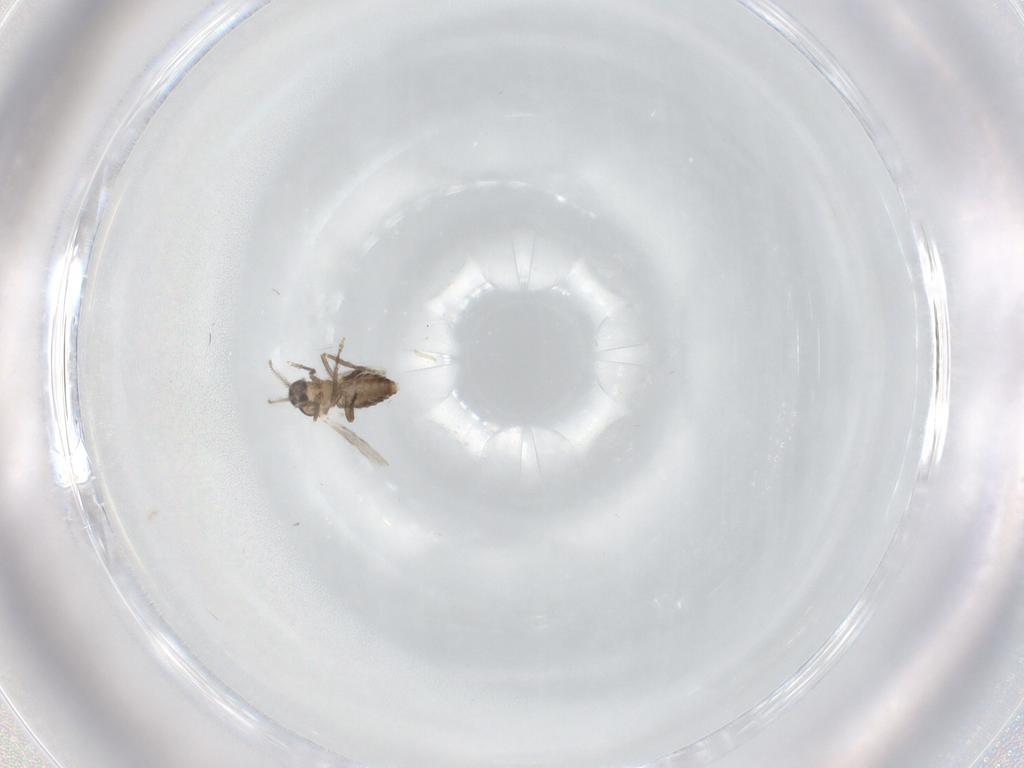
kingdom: Animalia
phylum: Arthropoda
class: Insecta
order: Diptera
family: Ceratopogonidae
